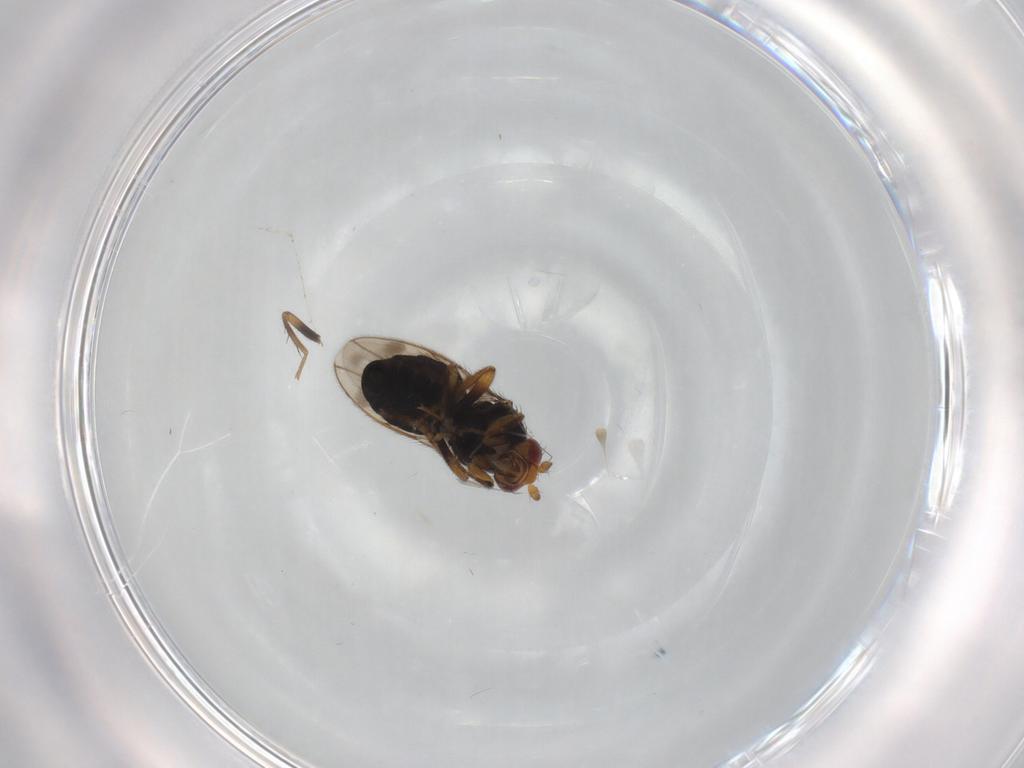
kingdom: Animalia
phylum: Arthropoda
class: Insecta
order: Diptera
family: Sphaeroceridae
